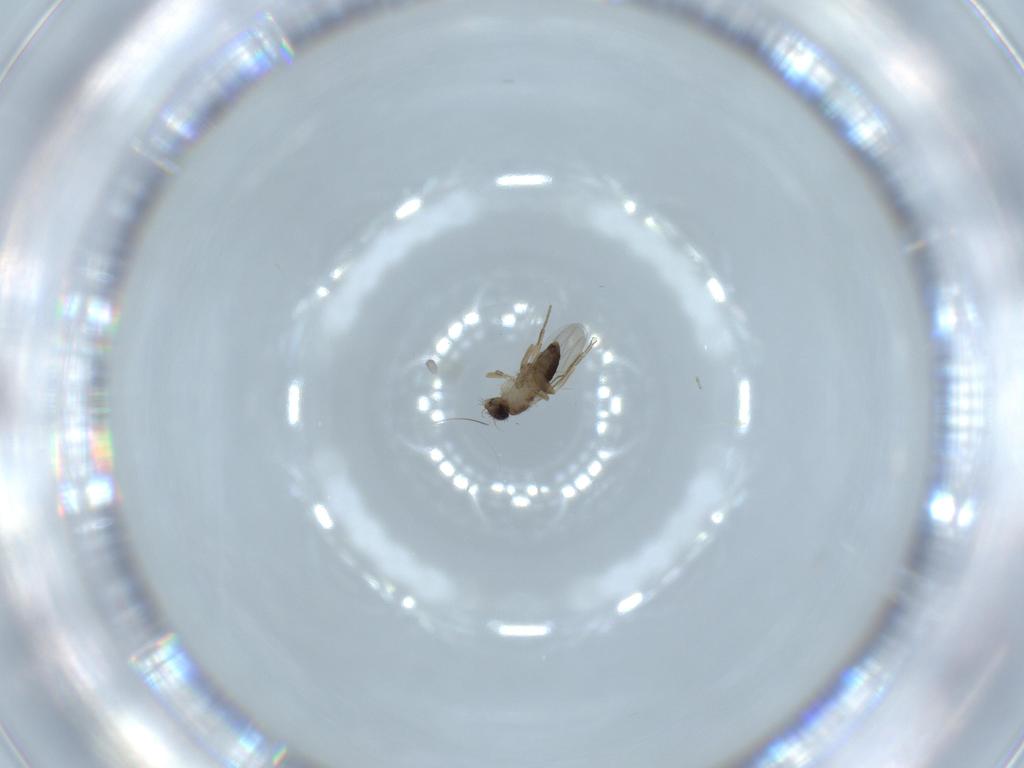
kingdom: Animalia
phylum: Arthropoda
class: Insecta
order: Diptera
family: Phoridae
